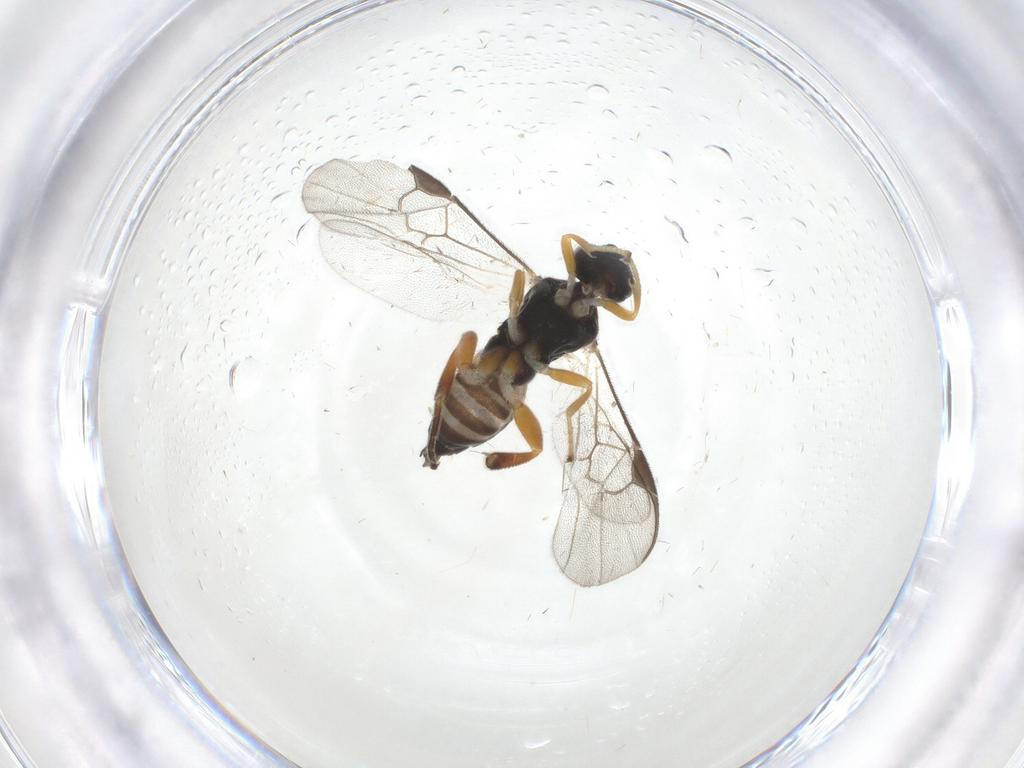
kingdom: Animalia
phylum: Arthropoda
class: Insecta
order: Hymenoptera
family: Braconidae
